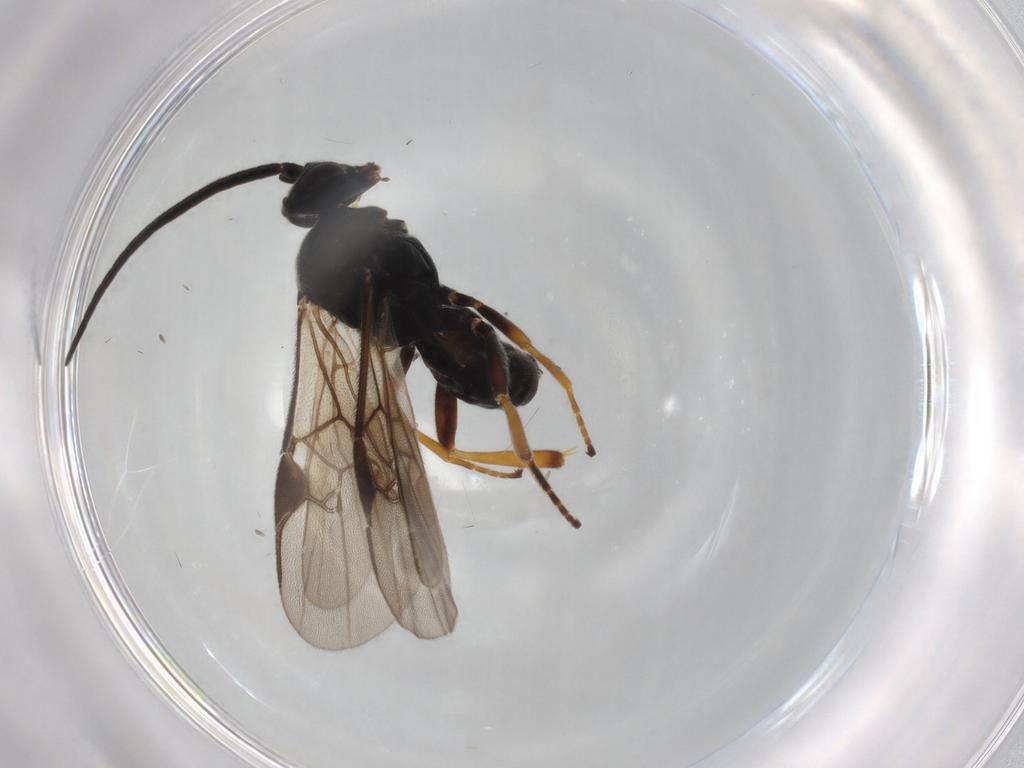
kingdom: Animalia
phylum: Arthropoda
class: Insecta
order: Hymenoptera
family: Braconidae
